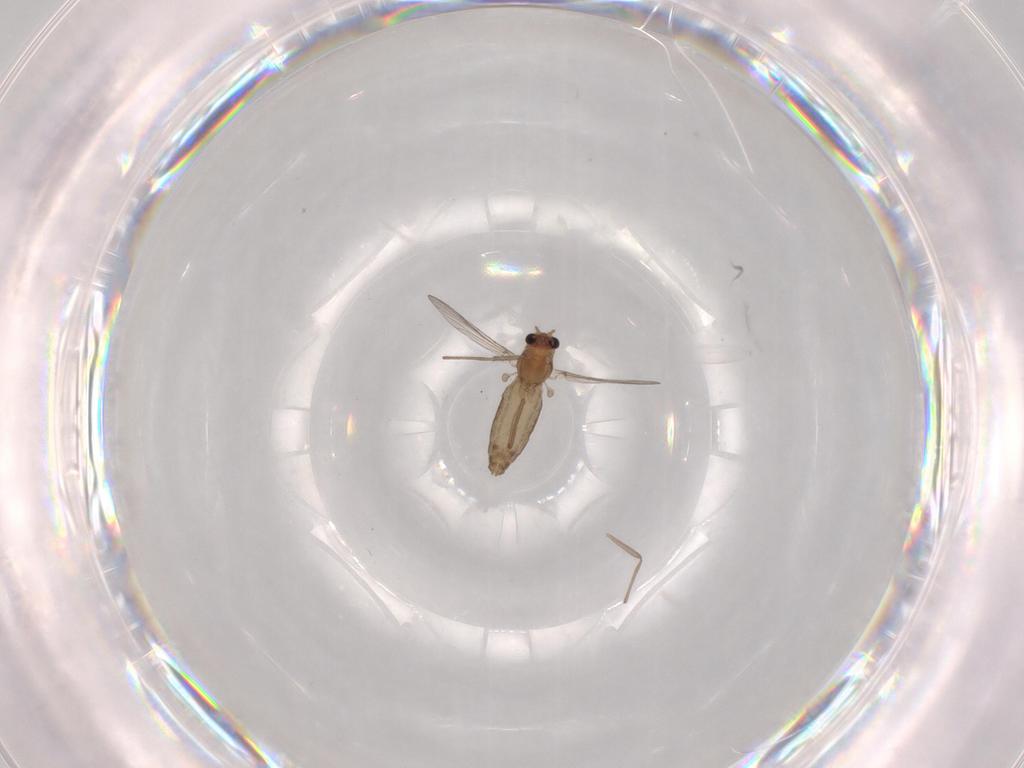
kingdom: Animalia
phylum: Arthropoda
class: Insecta
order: Diptera
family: Chironomidae
